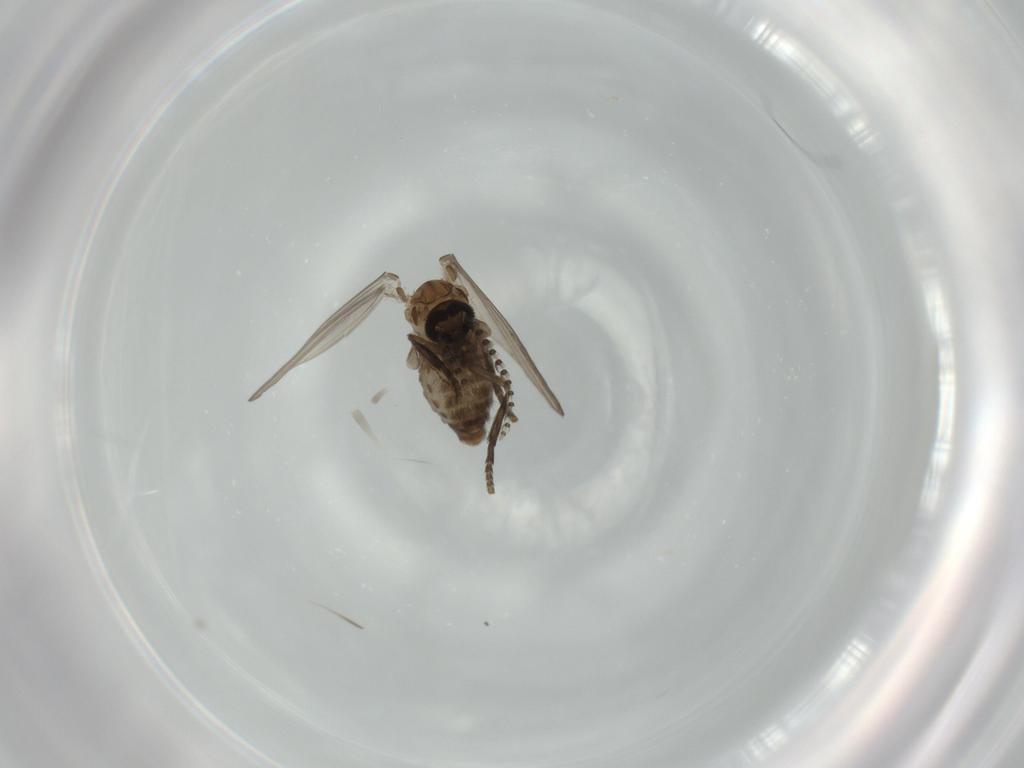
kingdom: Animalia
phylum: Arthropoda
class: Insecta
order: Diptera
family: Psychodidae
